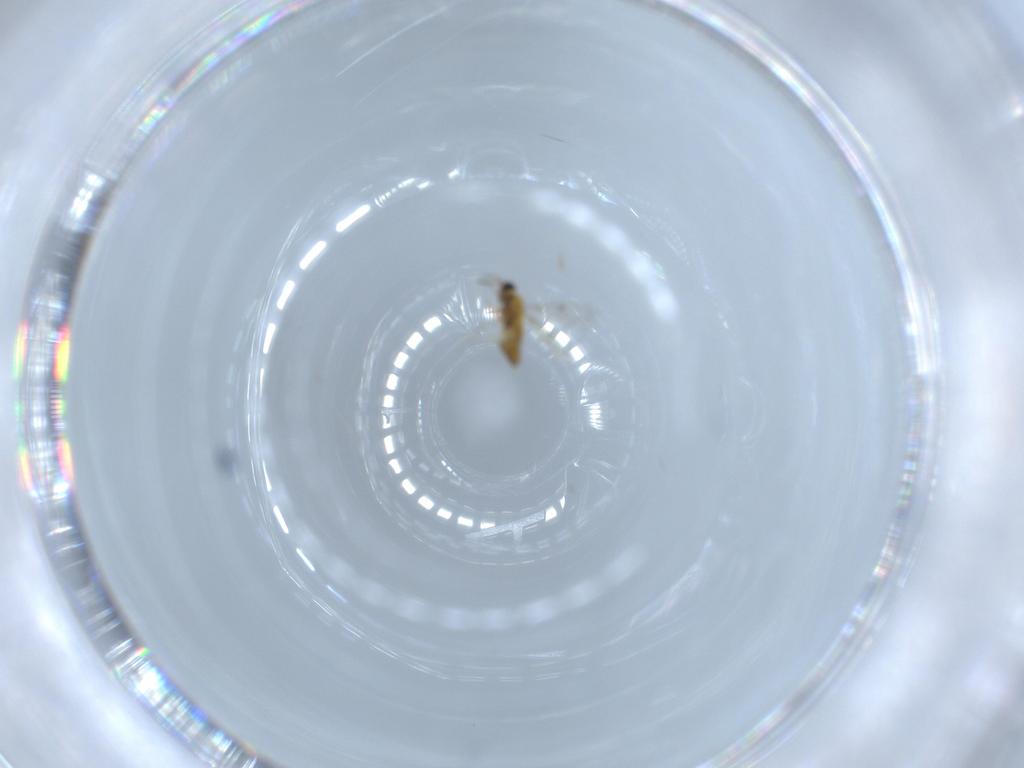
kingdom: Animalia
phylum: Arthropoda
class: Insecta
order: Hymenoptera
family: Trichogrammatidae
